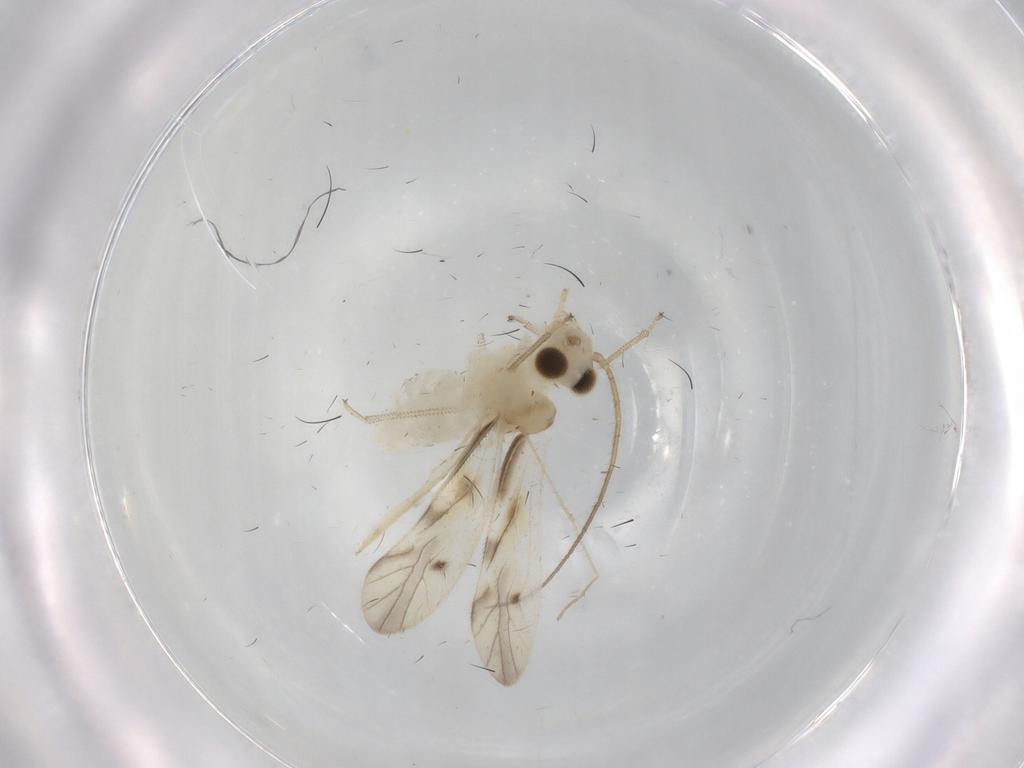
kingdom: Animalia
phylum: Arthropoda
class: Insecta
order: Psocodea
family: Caeciliusidae
